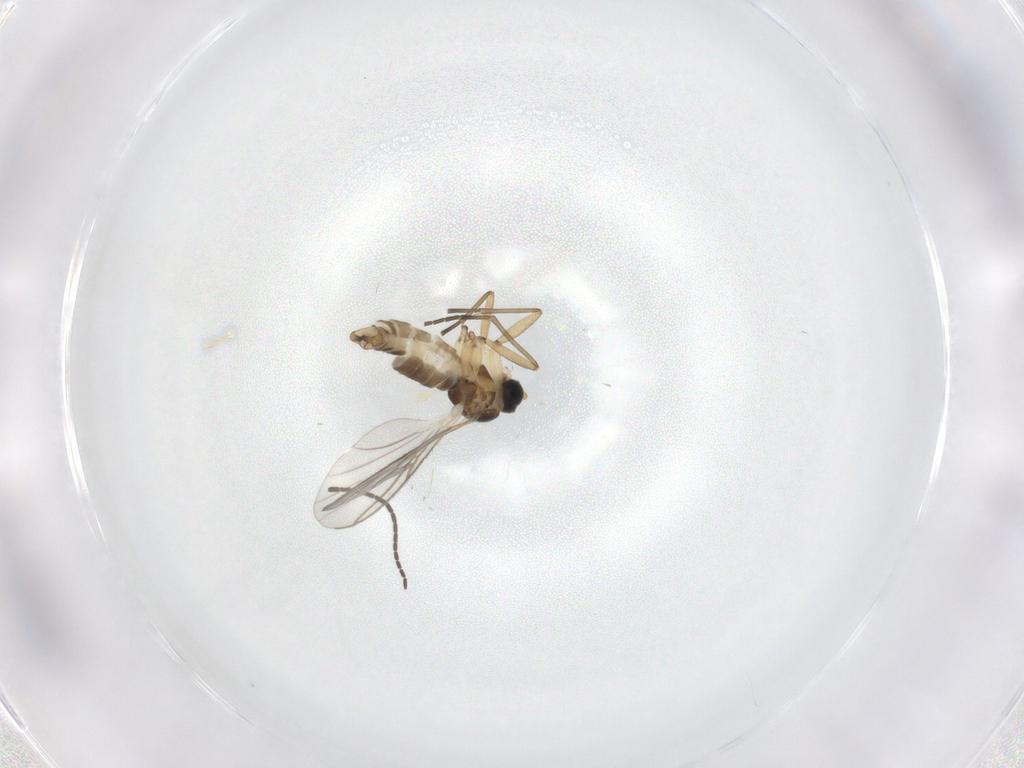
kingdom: Animalia
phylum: Arthropoda
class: Insecta
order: Diptera
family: Sciaridae
